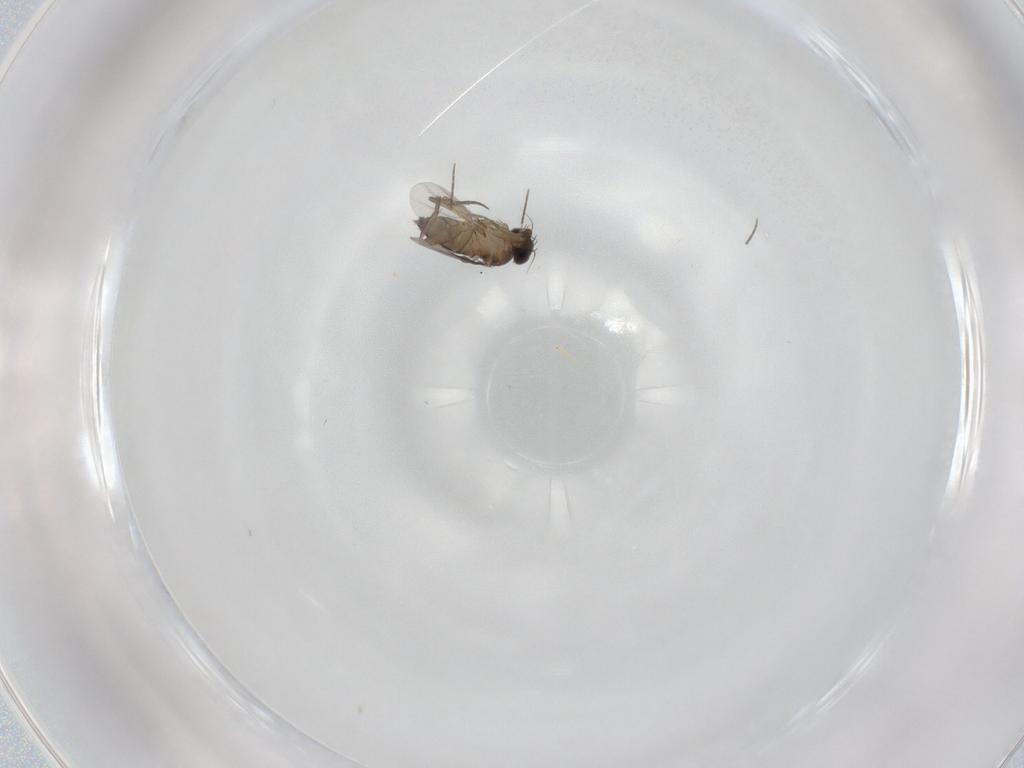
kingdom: Animalia
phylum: Arthropoda
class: Insecta
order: Diptera
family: Phoridae
